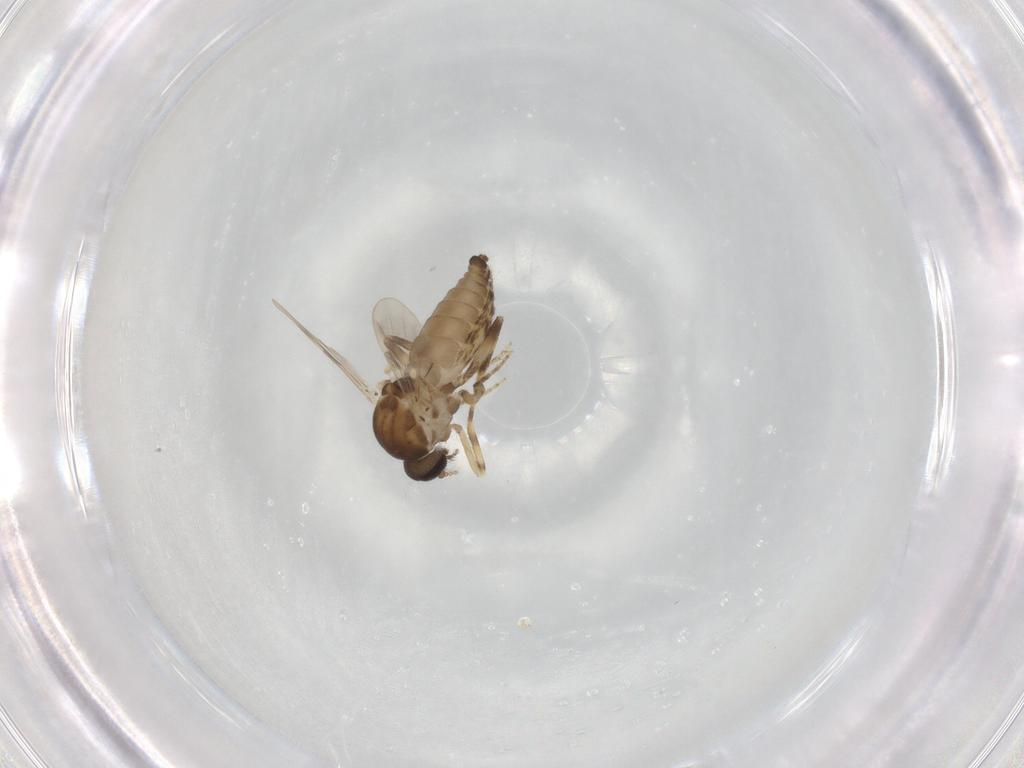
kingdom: Animalia
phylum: Arthropoda
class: Insecta
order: Diptera
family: Ceratopogonidae
